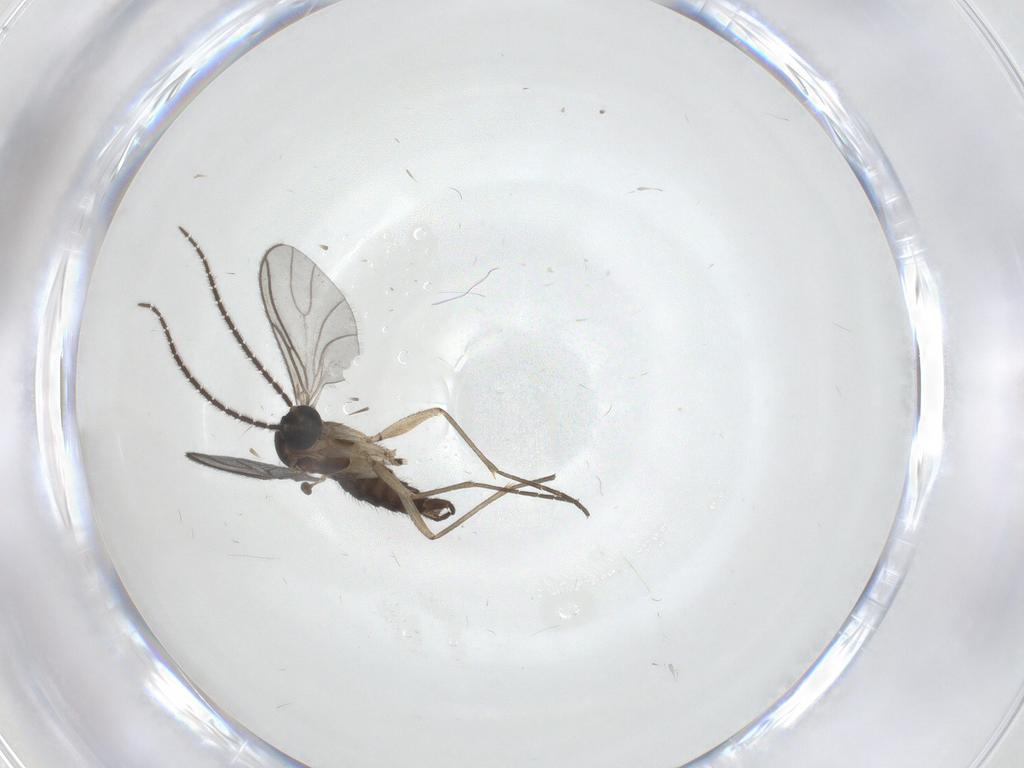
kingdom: Animalia
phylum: Arthropoda
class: Insecta
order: Diptera
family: Sciaridae
